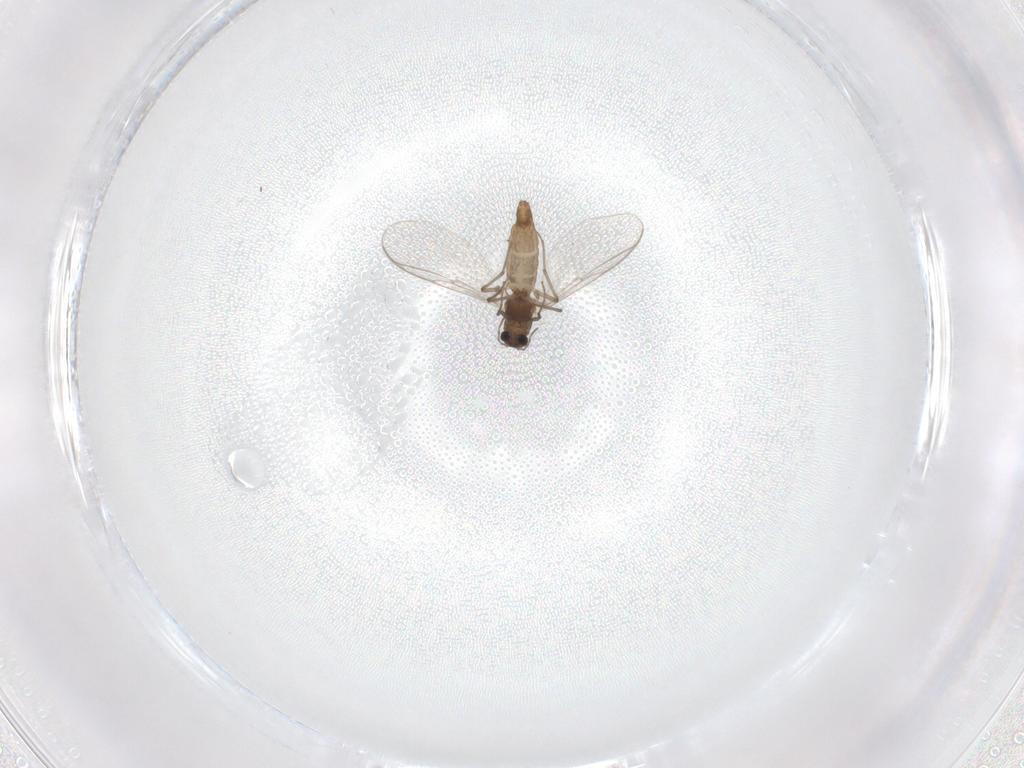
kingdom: Animalia
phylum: Arthropoda
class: Insecta
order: Diptera
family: Chironomidae
